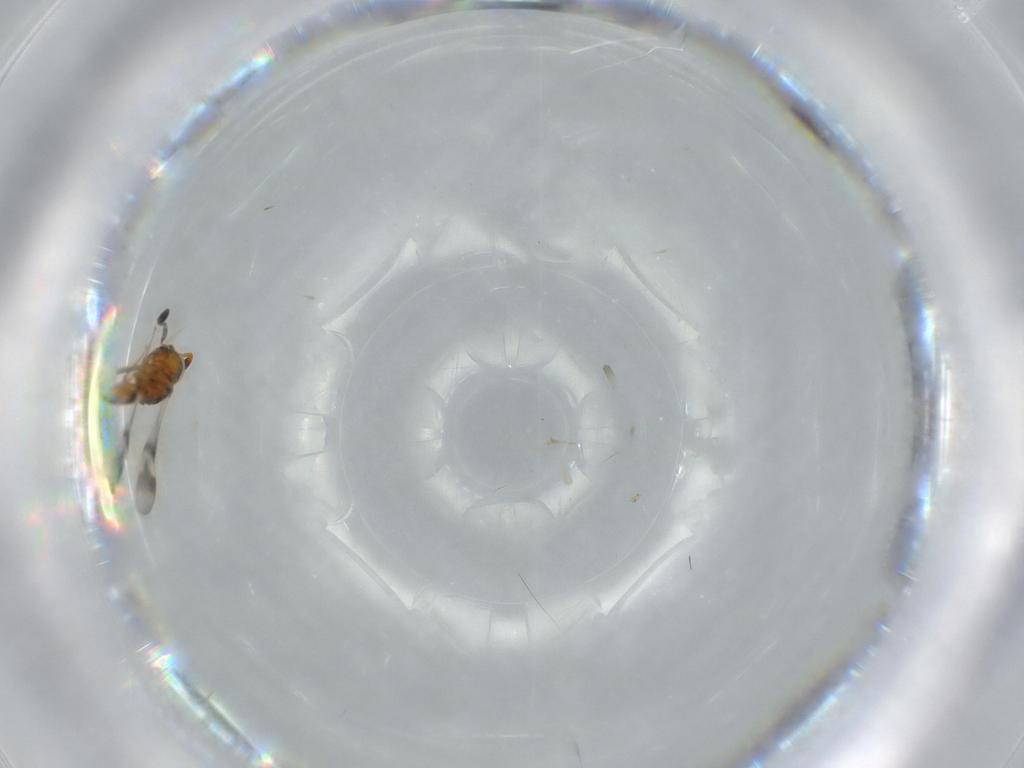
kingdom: Animalia
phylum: Arthropoda
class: Insecta
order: Hymenoptera
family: Scelionidae
